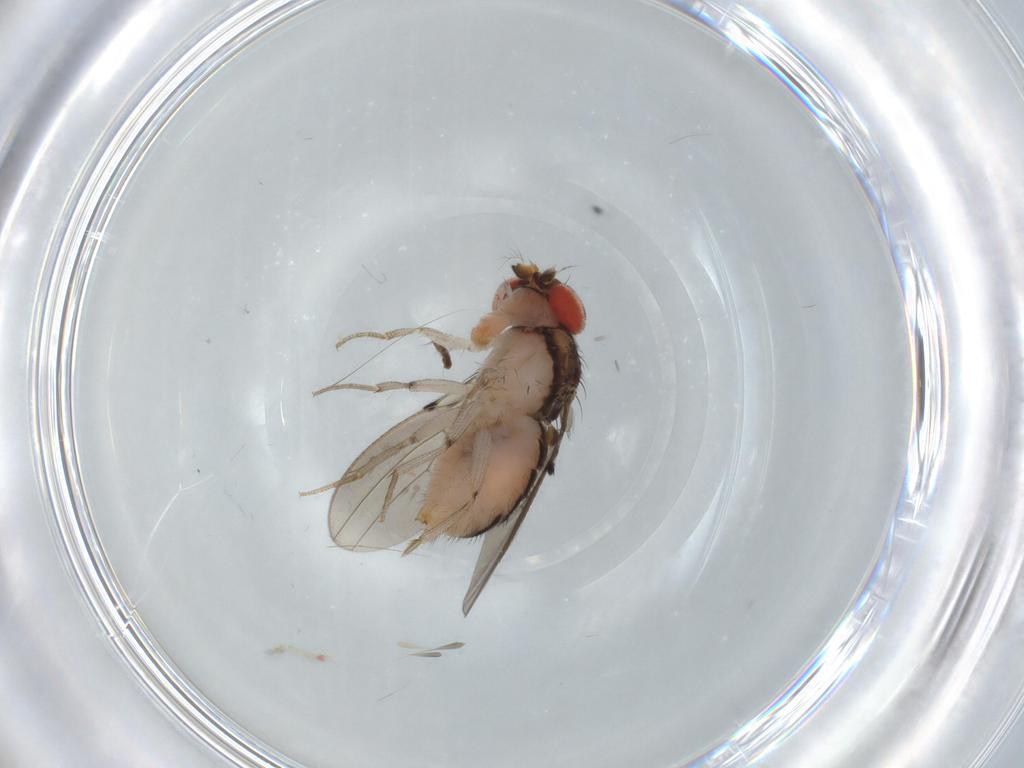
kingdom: Animalia
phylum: Arthropoda
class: Insecta
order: Diptera
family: Drosophilidae
